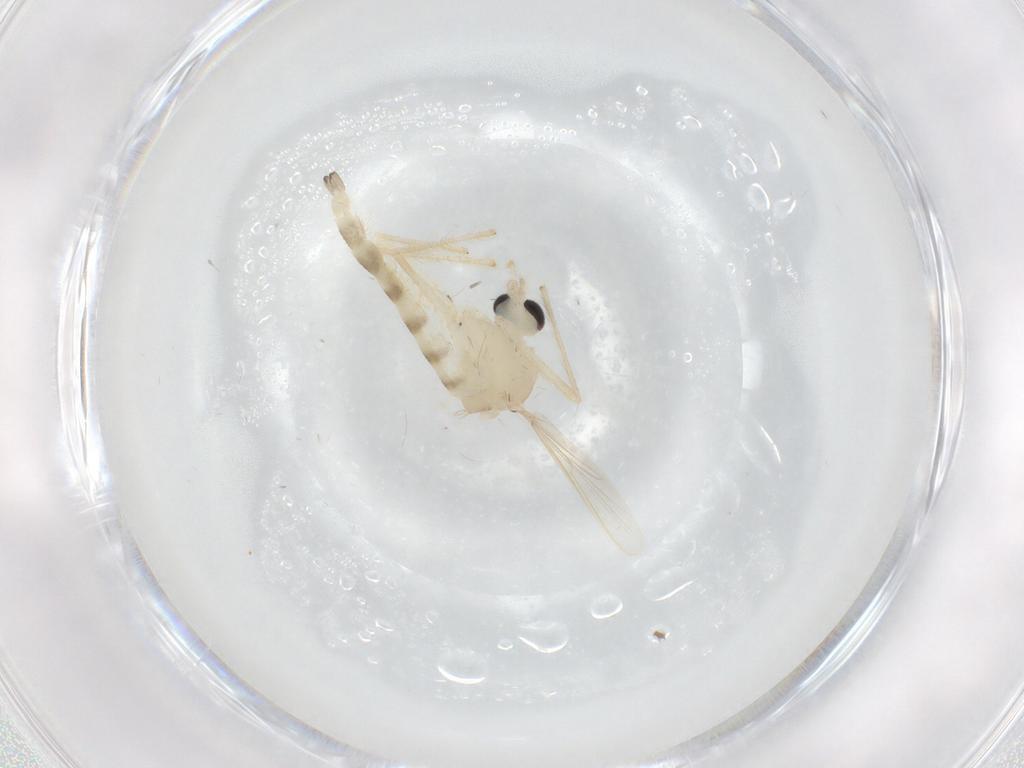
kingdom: Animalia
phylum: Arthropoda
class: Insecta
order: Diptera
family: Chironomidae
